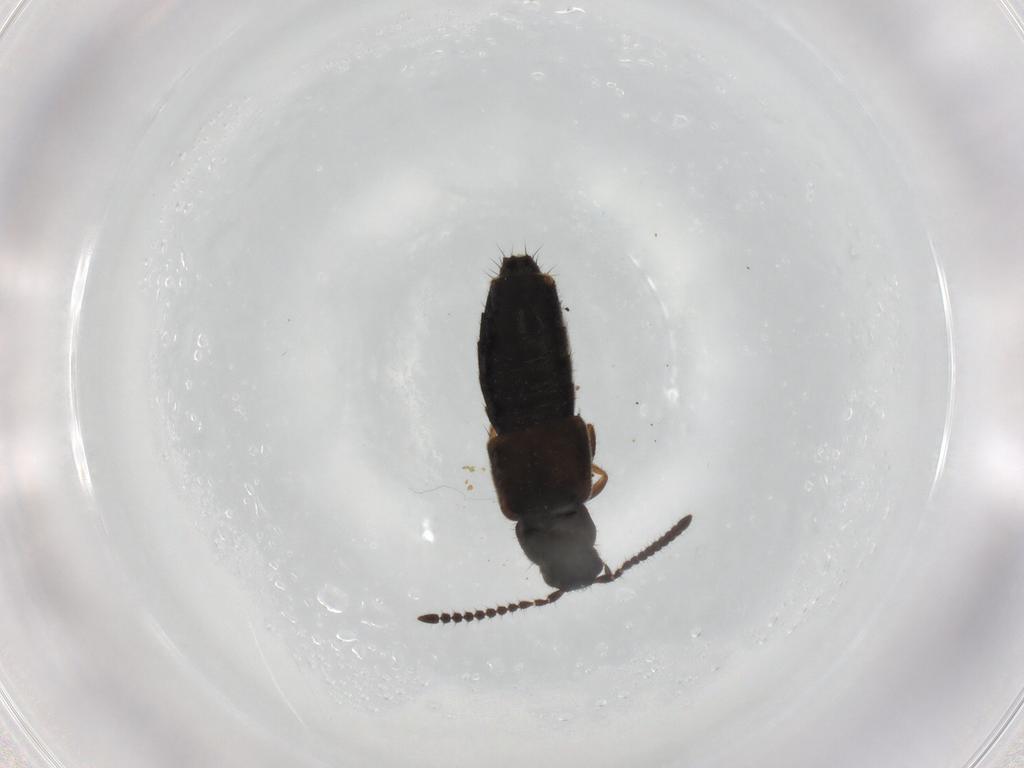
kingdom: Animalia
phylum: Arthropoda
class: Insecta
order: Coleoptera
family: Staphylinidae
